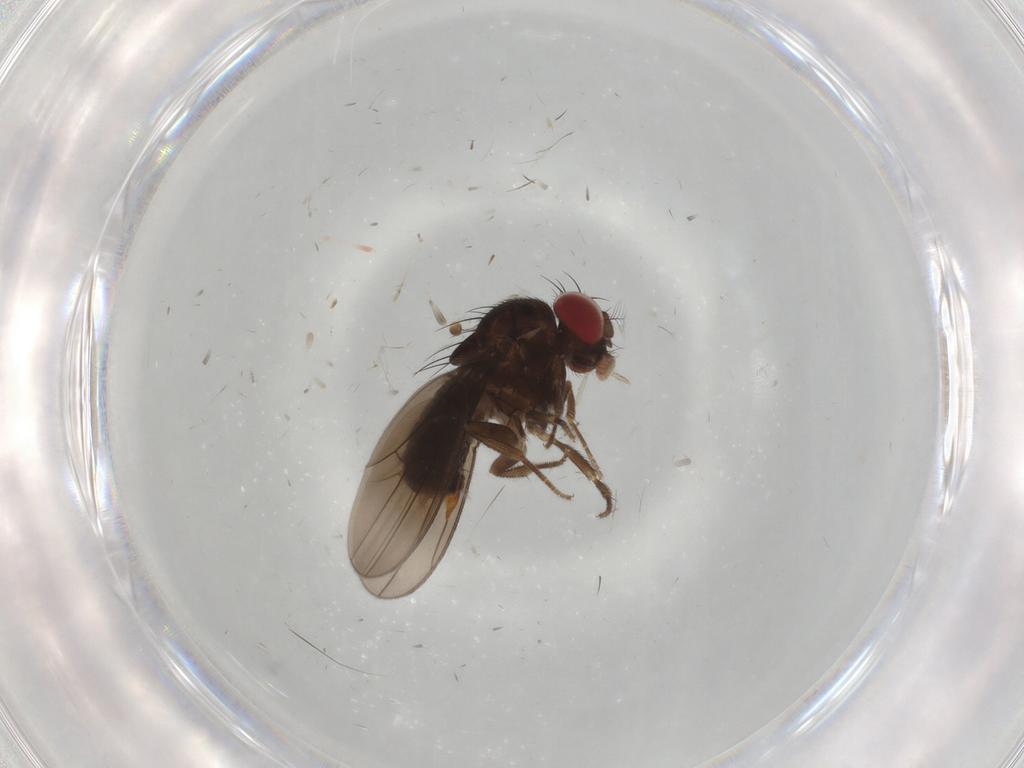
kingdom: Animalia
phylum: Arthropoda
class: Insecta
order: Diptera
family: Drosophilidae
